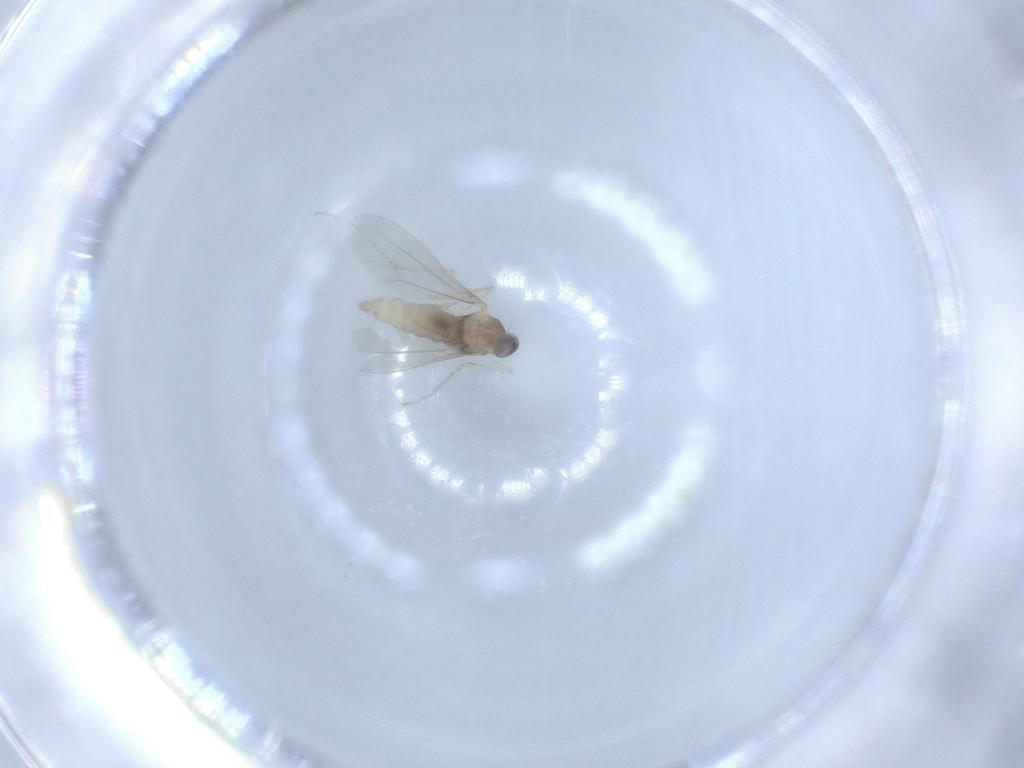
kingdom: Animalia
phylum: Arthropoda
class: Insecta
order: Diptera
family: Cecidomyiidae
